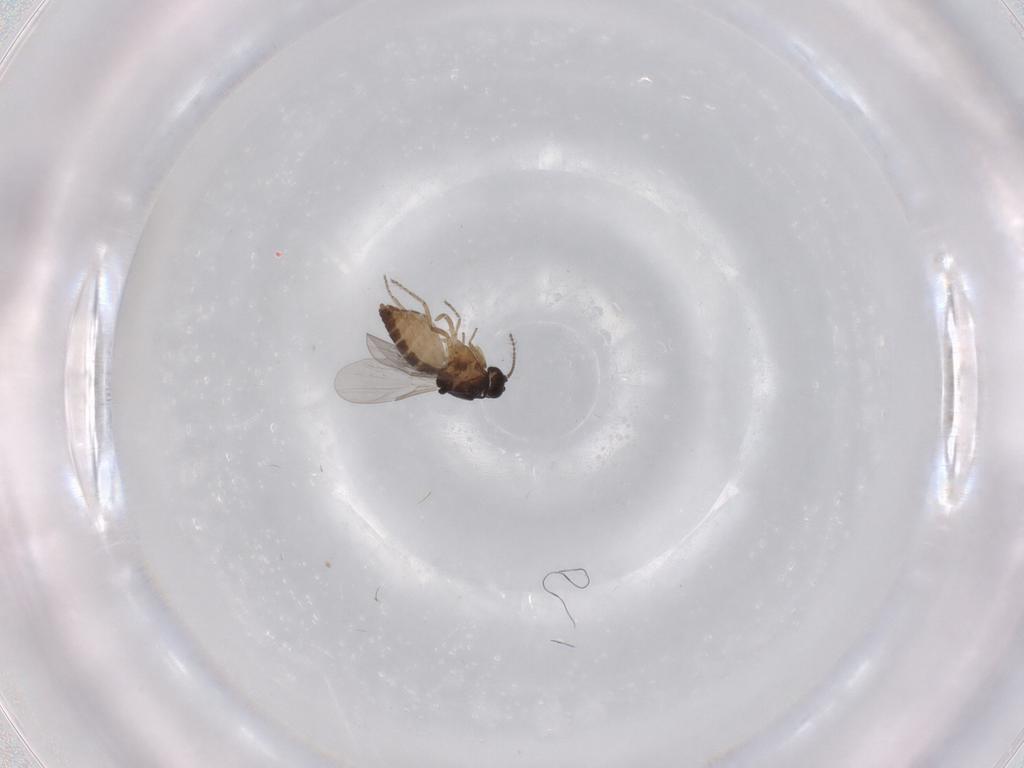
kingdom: Animalia
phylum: Arthropoda
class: Insecta
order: Diptera
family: Ceratopogonidae
